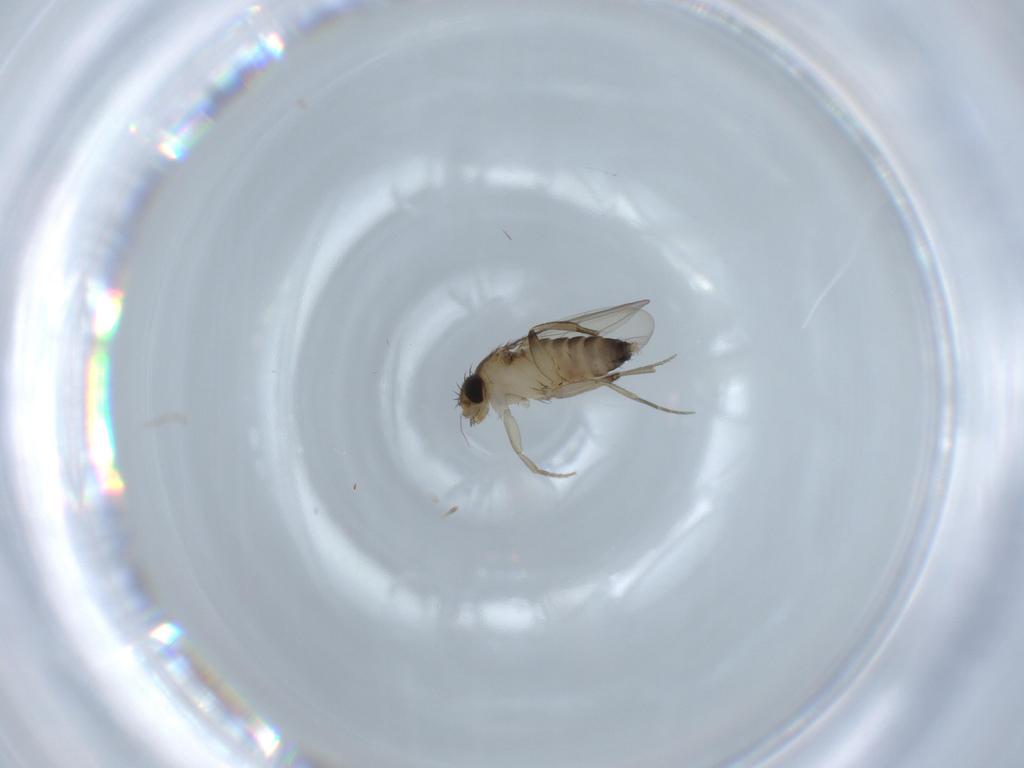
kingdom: Animalia
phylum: Arthropoda
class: Insecta
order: Diptera
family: Phoridae
